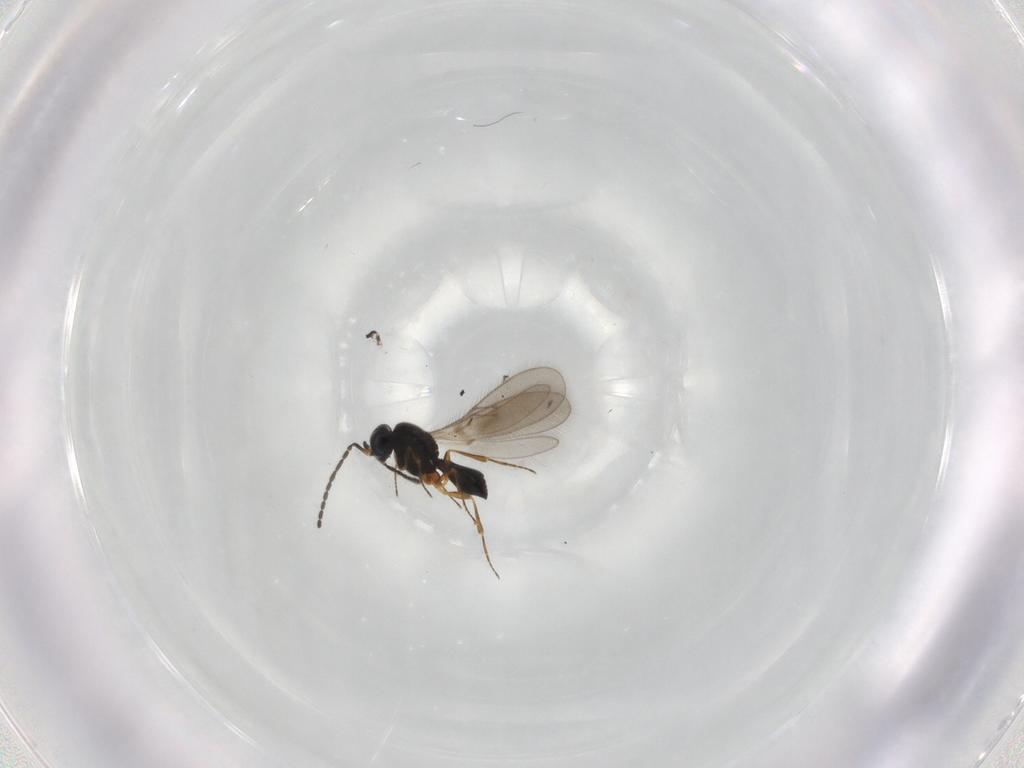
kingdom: Animalia
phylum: Arthropoda
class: Insecta
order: Hymenoptera
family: Scelionidae
